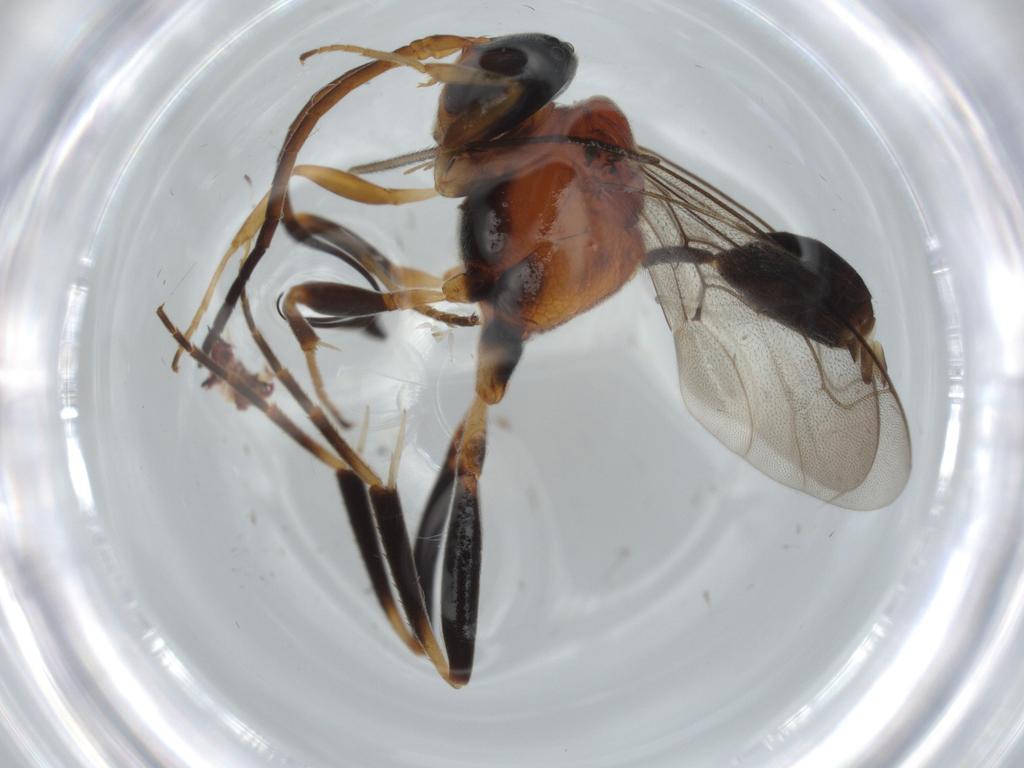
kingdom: Animalia
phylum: Arthropoda
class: Insecta
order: Hymenoptera
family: Evaniidae
